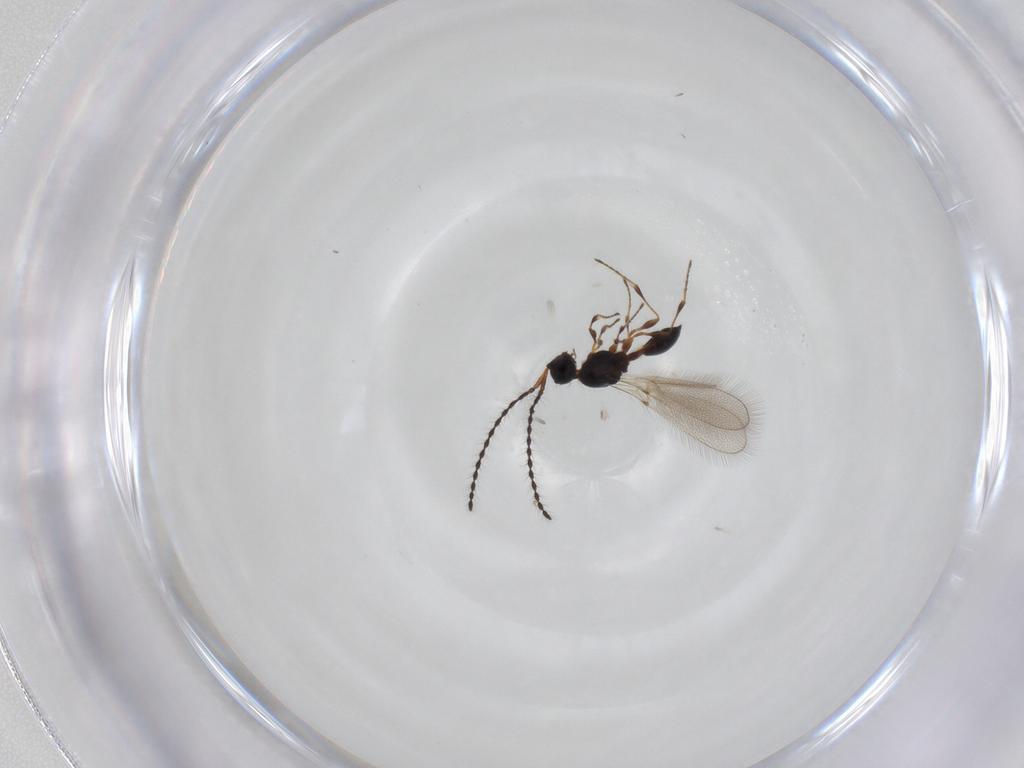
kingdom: Animalia
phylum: Arthropoda
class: Insecta
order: Hymenoptera
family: Diapriidae
